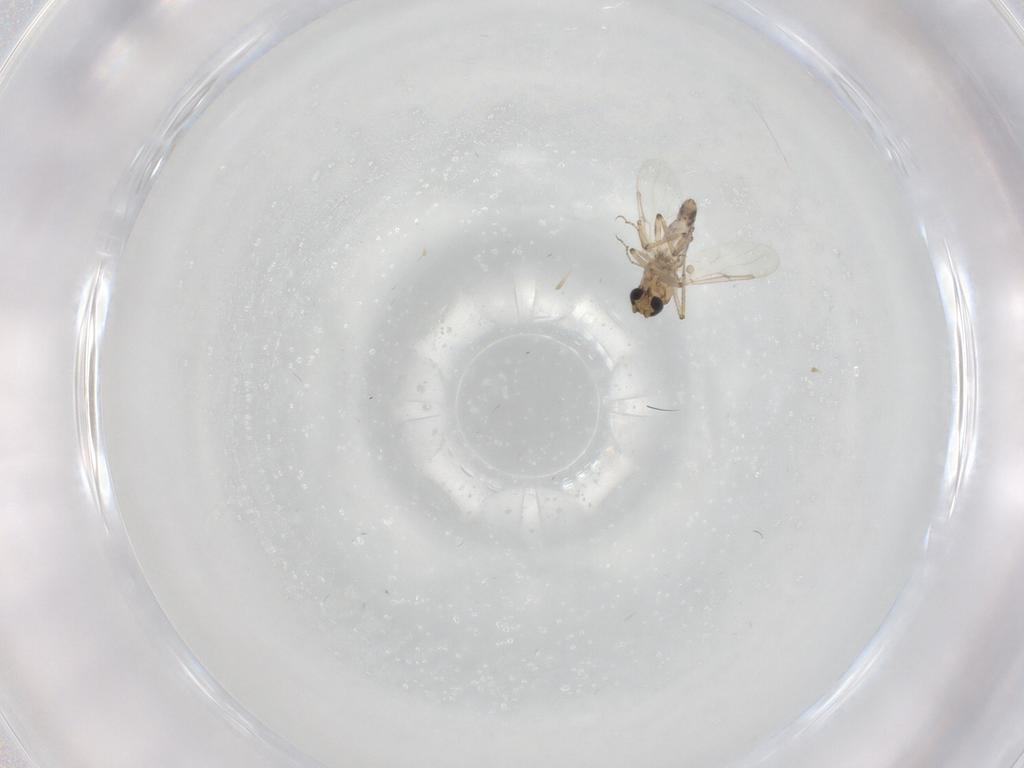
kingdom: Animalia
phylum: Arthropoda
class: Insecta
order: Diptera
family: Ceratopogonidae
